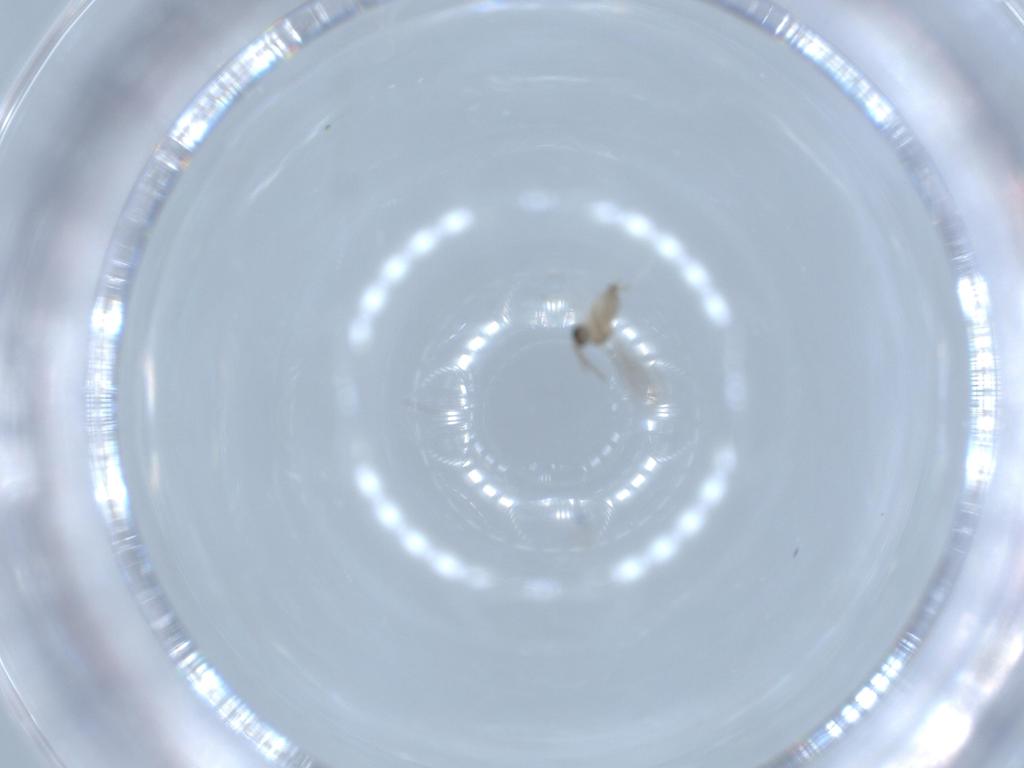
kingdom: Animalia
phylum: Arthropoda
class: Insecta
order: Diptera
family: Cecidomyiidae
